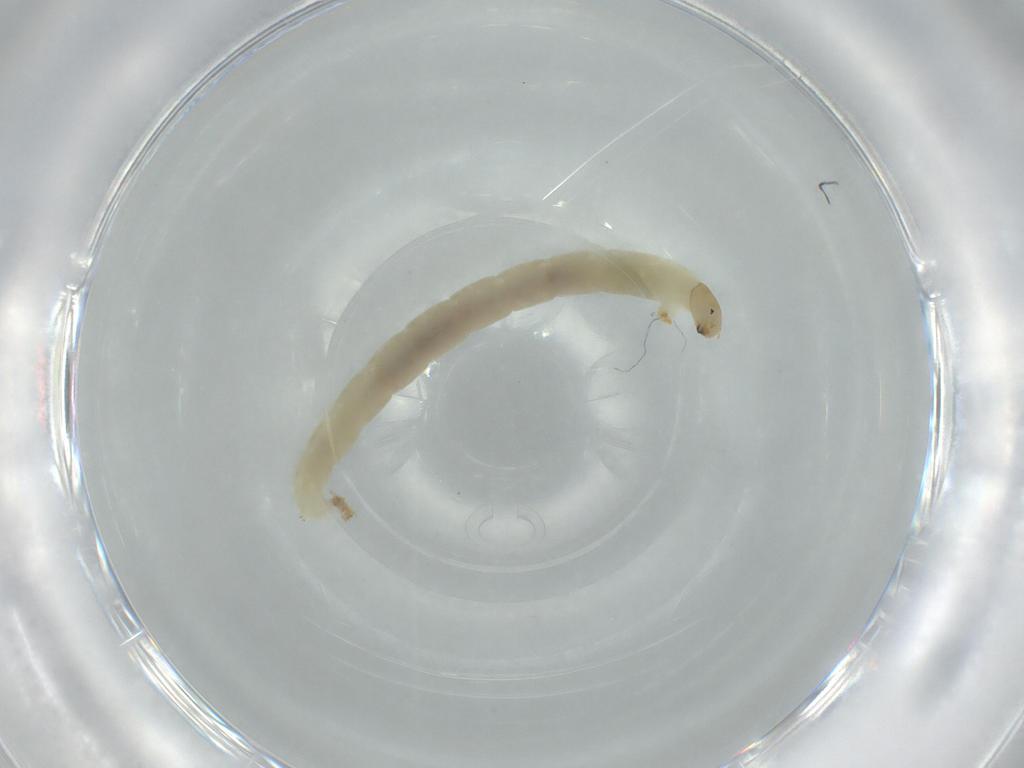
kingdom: Animalia
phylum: Arthropoda
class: Insecta
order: Diptera
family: Chironomidae
